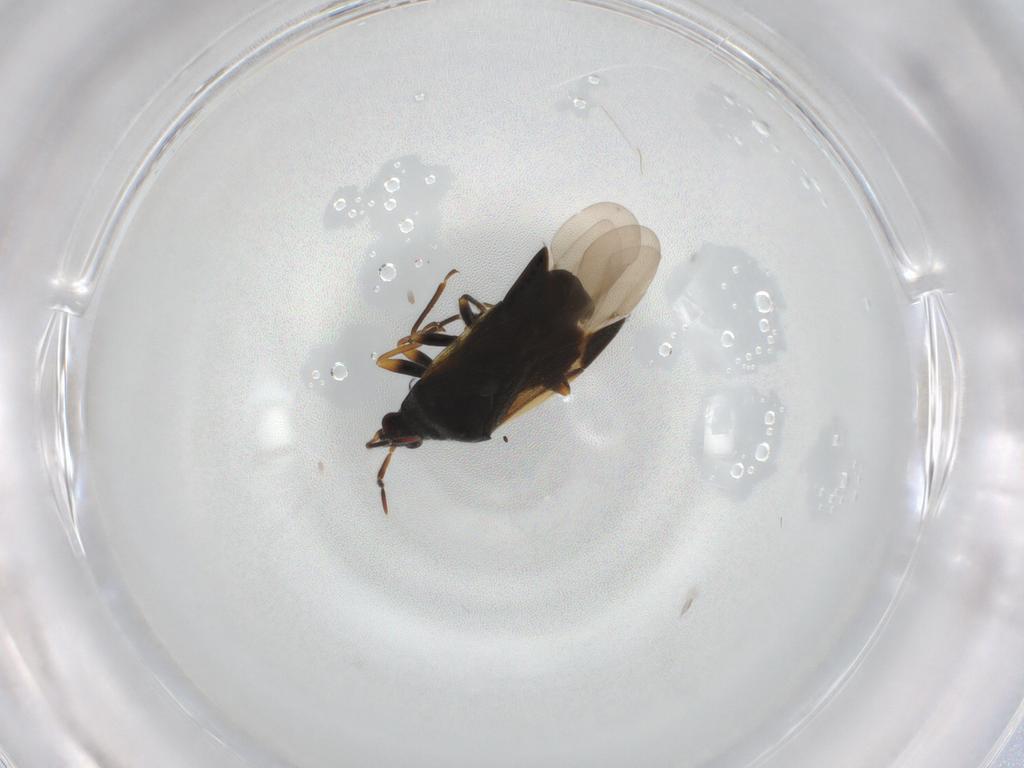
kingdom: Animalia
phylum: Arthropoda
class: Insecta
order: Hemiptera
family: Anthocoridae
